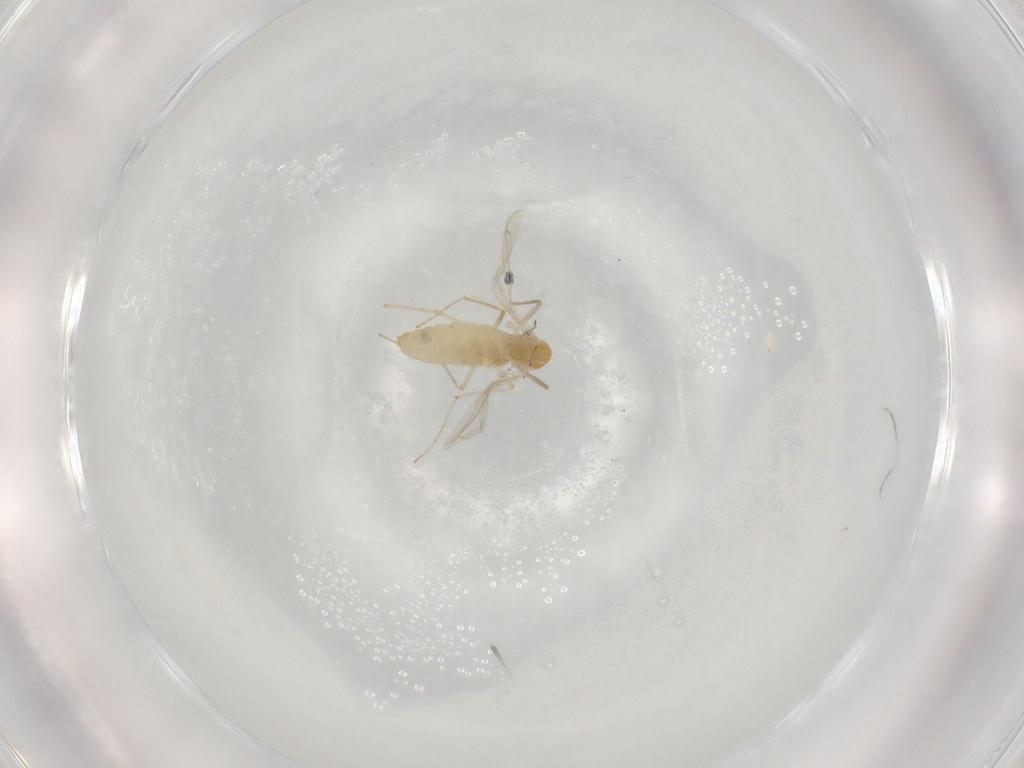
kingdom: Animalia
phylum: Arthropoda
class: Insecta
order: Diptera
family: Chironomidae
